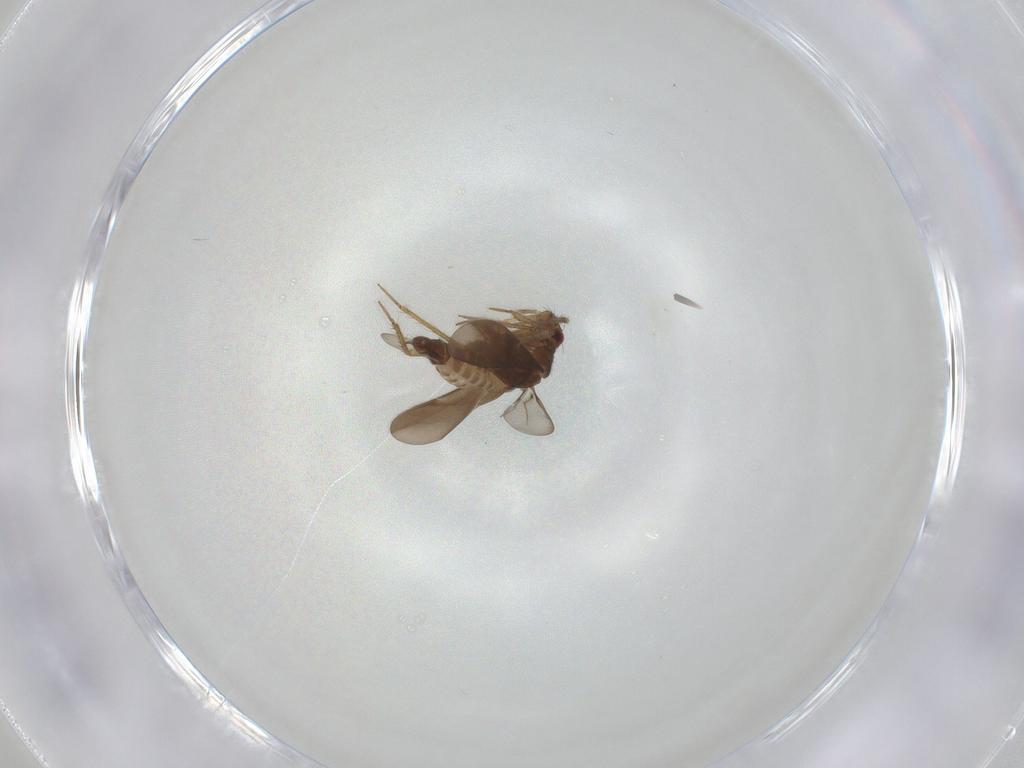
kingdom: Animalia
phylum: Arthropoda
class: Insecta
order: Hemiptera
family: Ceratocombidae
